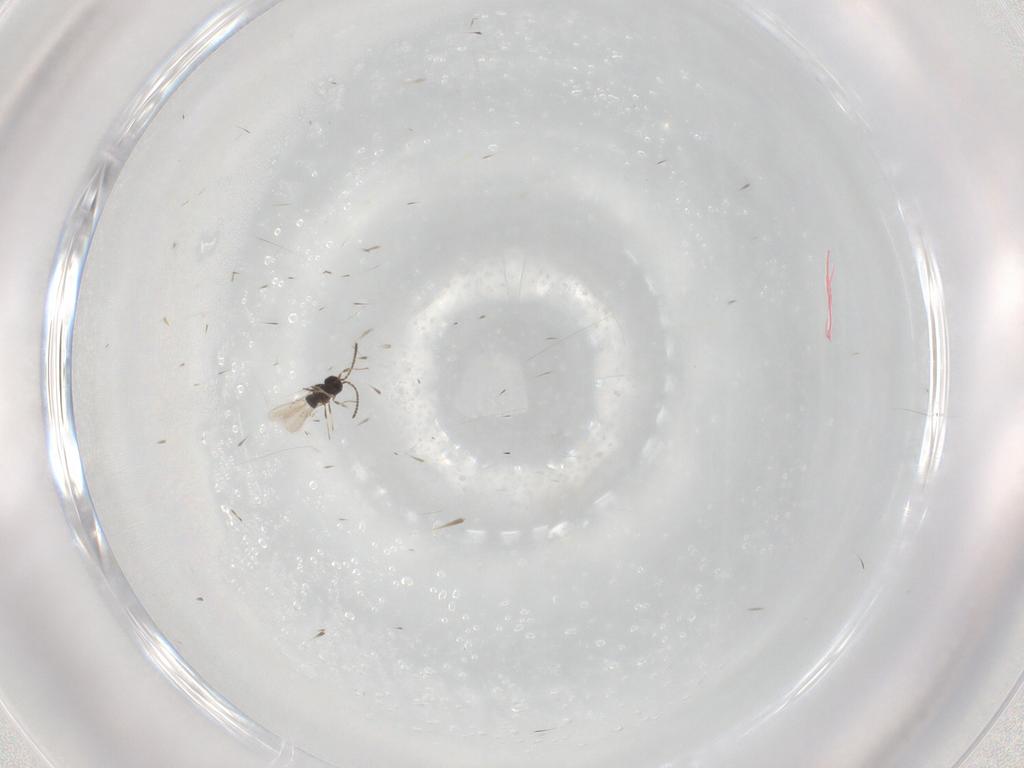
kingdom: Animalia
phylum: Arthropoda
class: Insecta
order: Hymenoptera
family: Scelionidae
